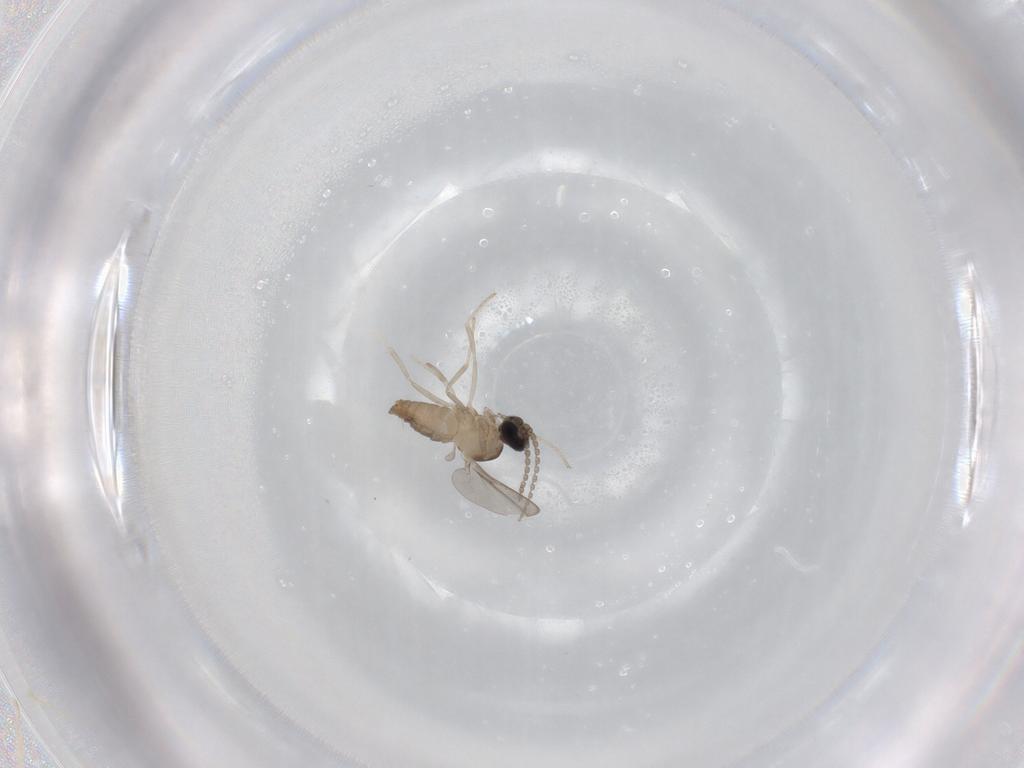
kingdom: Animalia
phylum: Arthropoda
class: Insecta
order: Diptera
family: Cecidomyiidae
